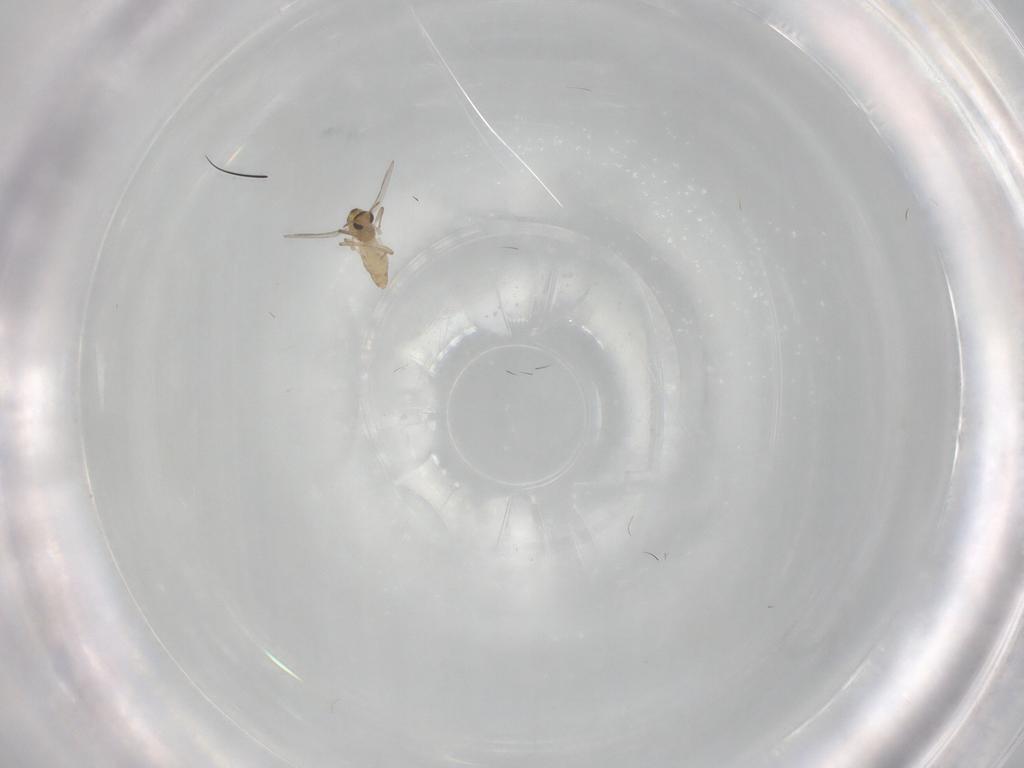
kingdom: Animalia
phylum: Arthropoda
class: Insecta
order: Diptera
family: Chironomidae
